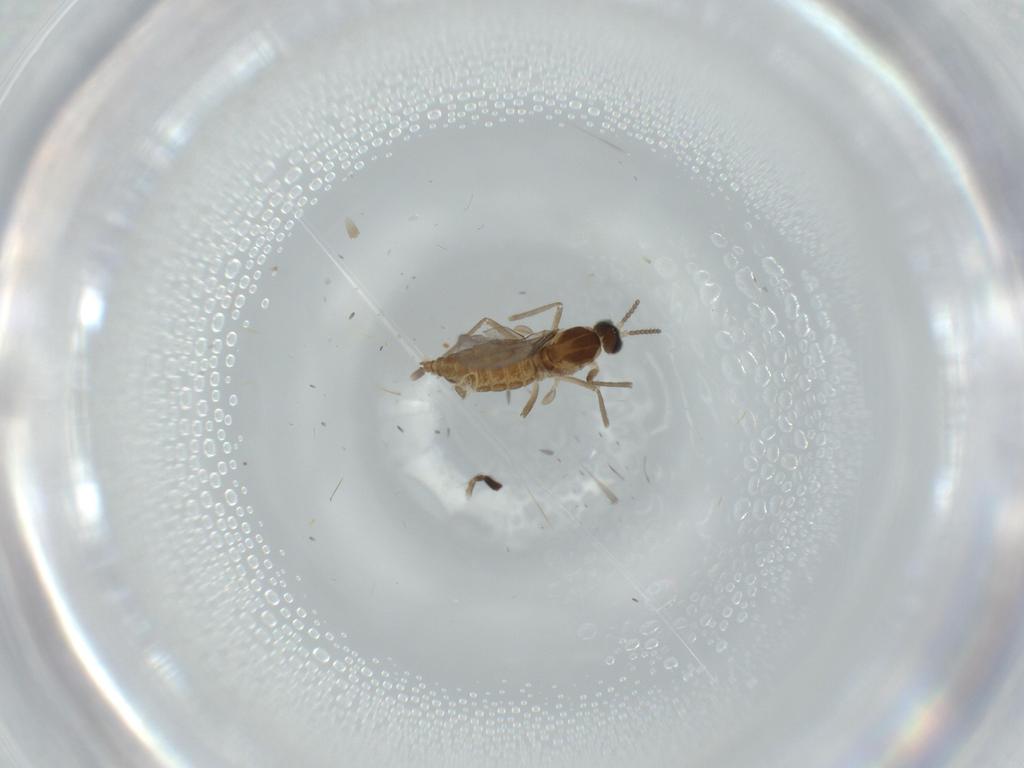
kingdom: Animalia
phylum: Arthropoda
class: Insecta
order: Diptera
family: Cecidomyiidae
